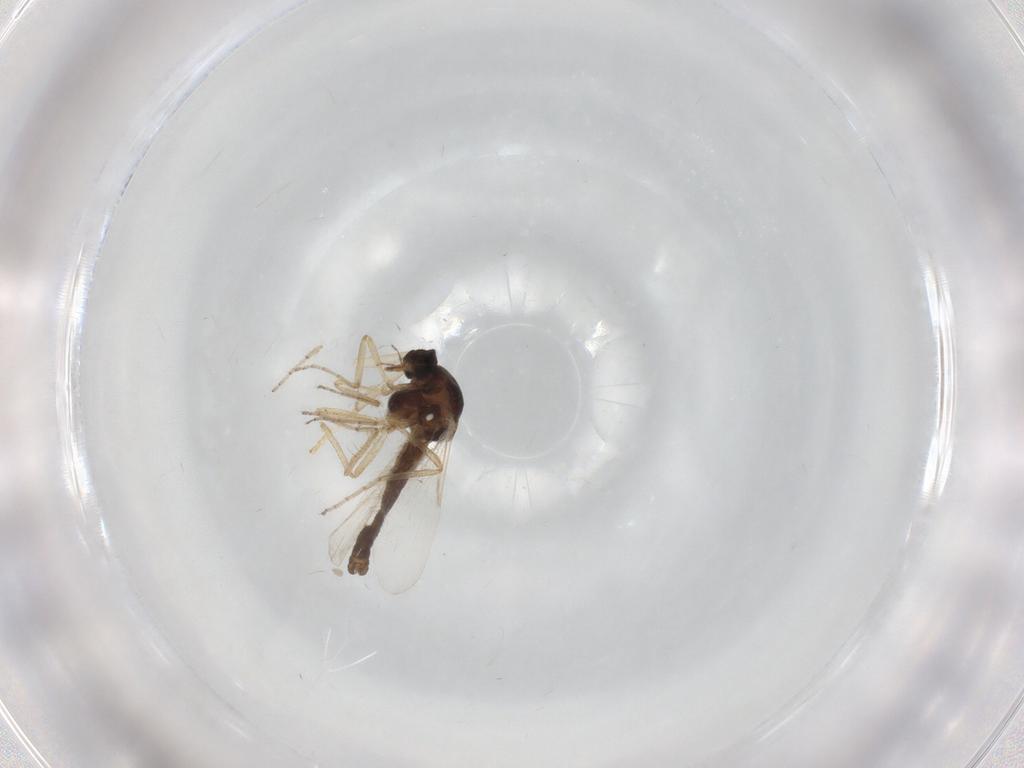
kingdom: Animalia
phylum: Arthropoda
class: Insecta
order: Diptera
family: Ceratopogonidae
